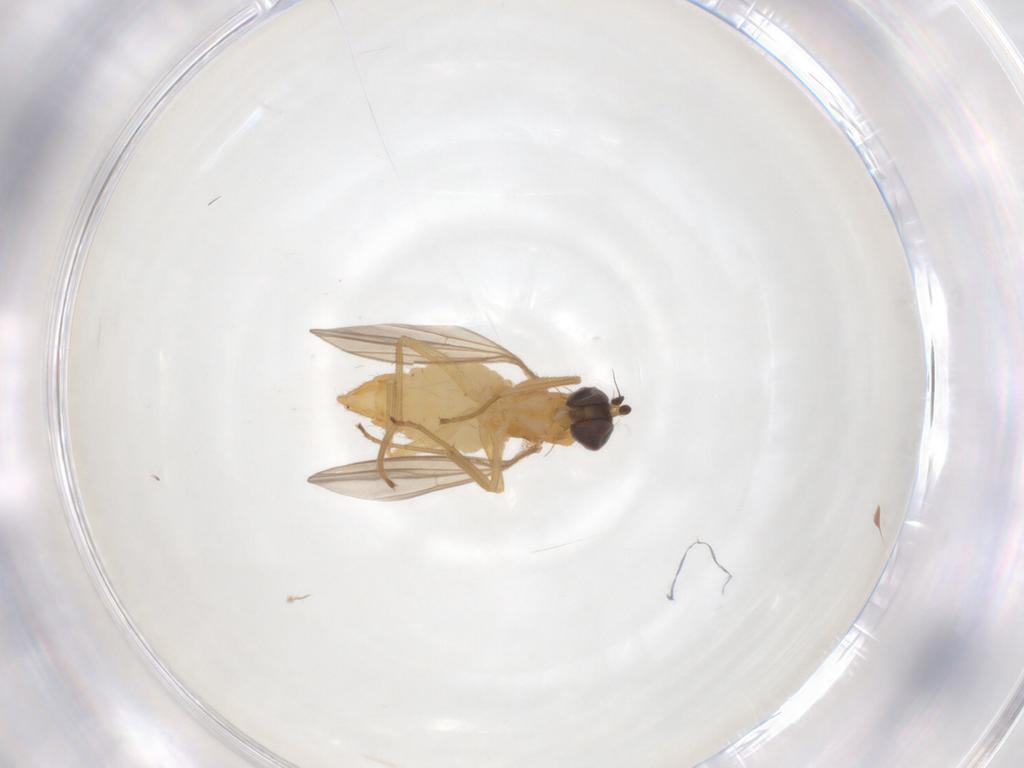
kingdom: Animalia
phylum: Arthropoda
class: Insecta
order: Diptera
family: Dolichopodidae
